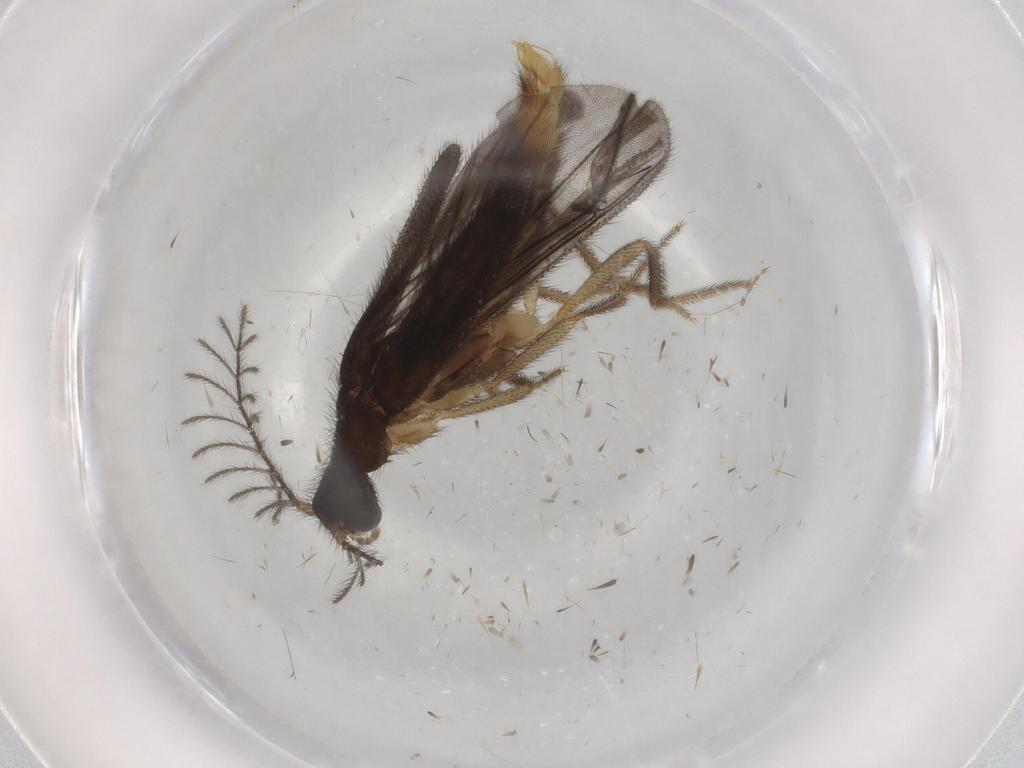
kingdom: Animalia
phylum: Arthropoda
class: Insecta
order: Coleoptera
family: Chrysomelidae
